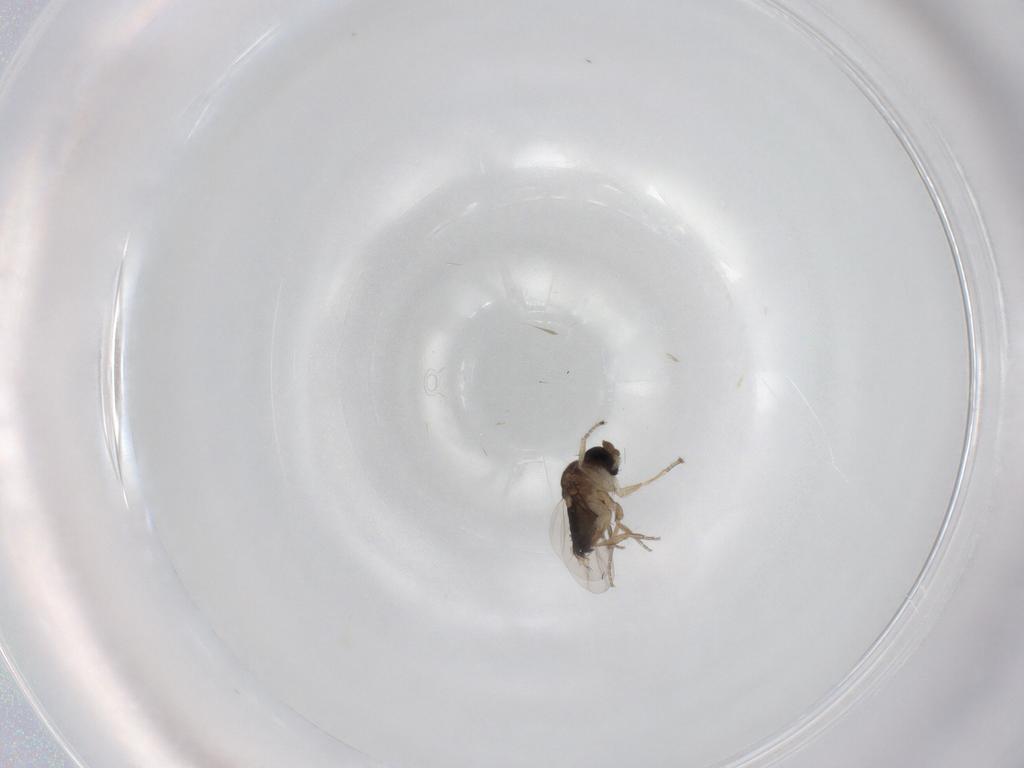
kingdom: Animalia
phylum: Arthropoda
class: Insecta
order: Diptera
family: Phoridae
